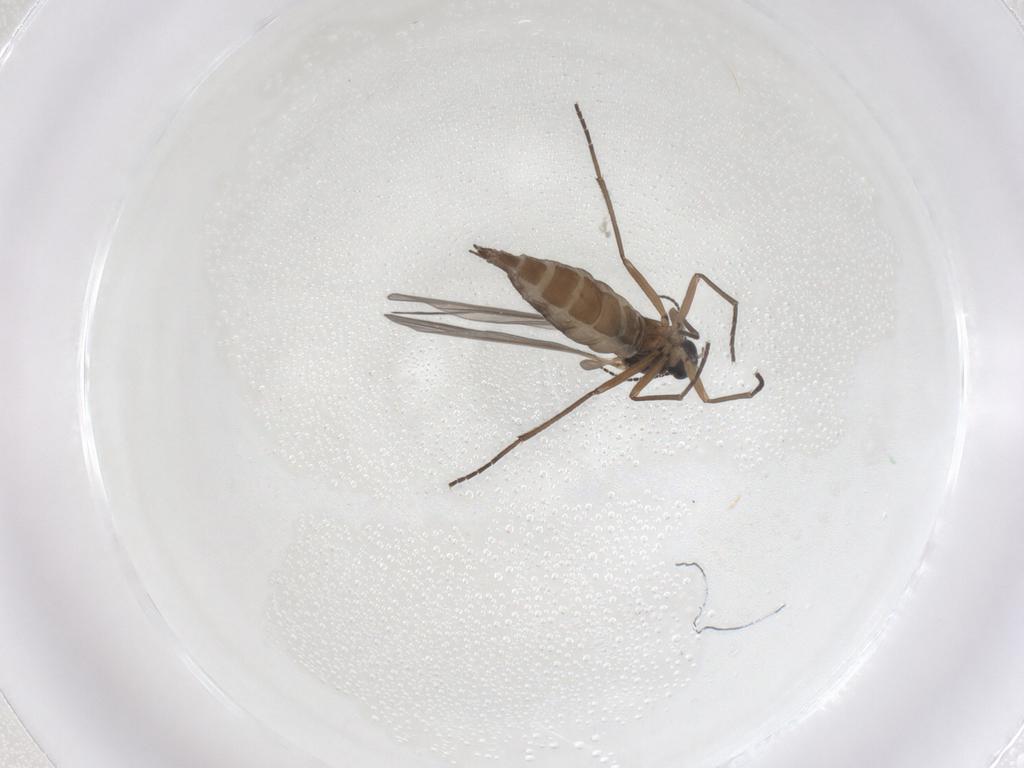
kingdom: Animalia
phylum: Arthropoda
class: Insecta
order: Diptera
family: Sciaridae
